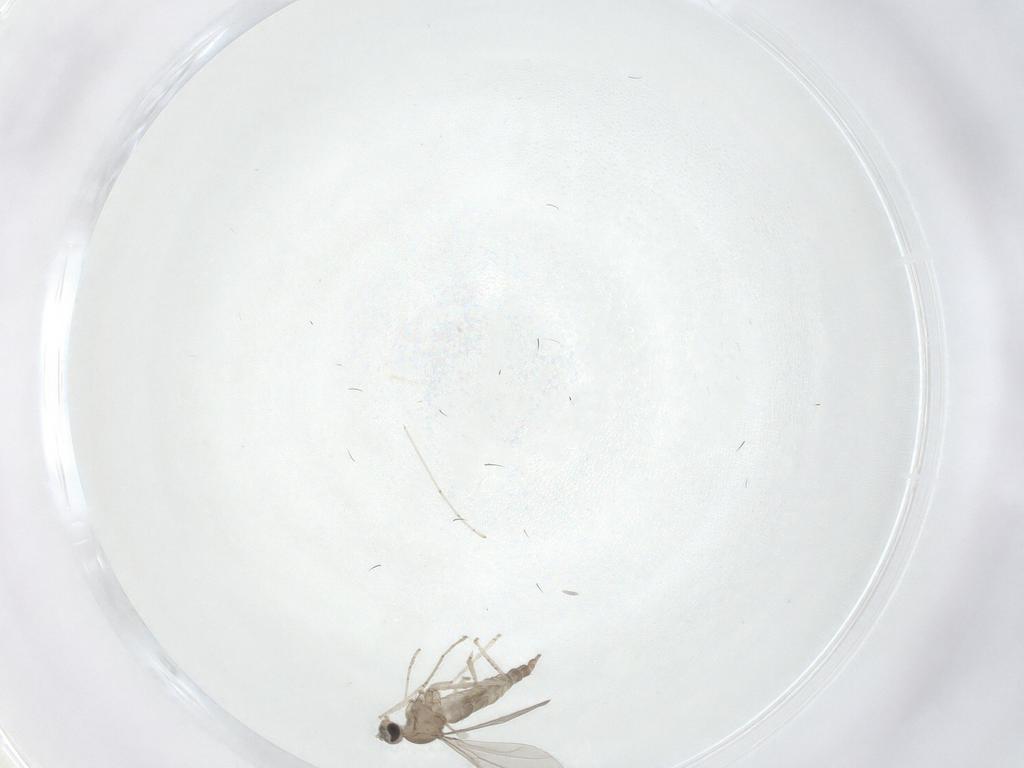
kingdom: Animalia
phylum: Arthropoda
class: Insecta
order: Diptera
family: Cecidomyiidae
